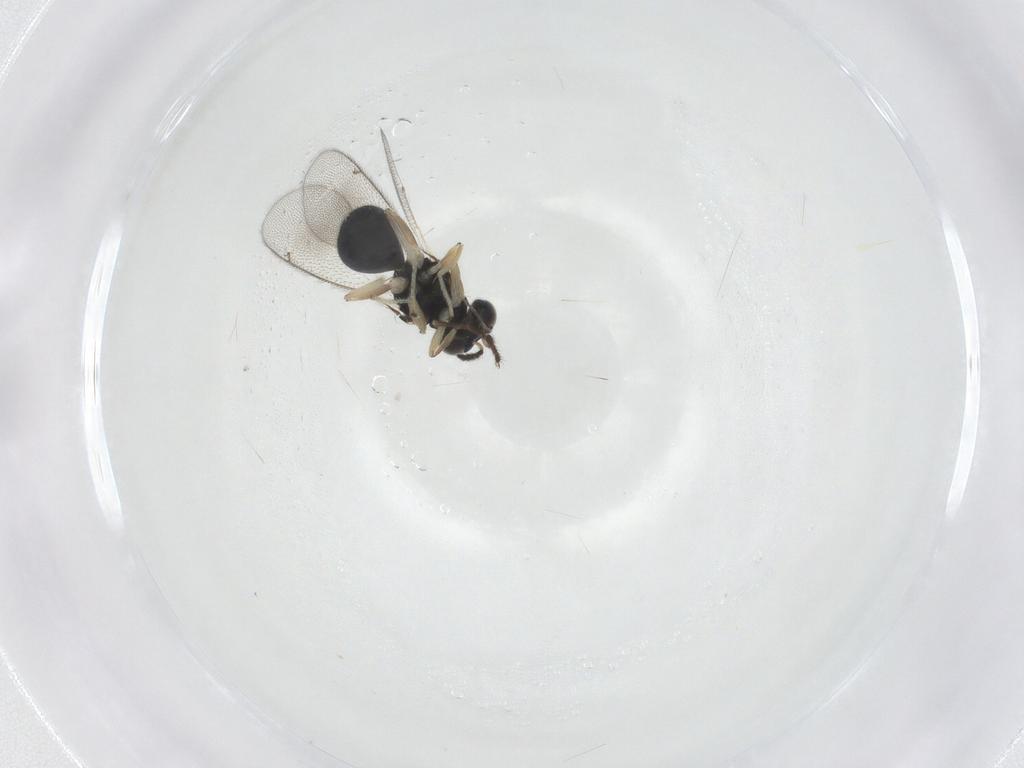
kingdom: Animalia
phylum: Arthropoda
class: Insecta
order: Hymenoptera
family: Eulophidae
